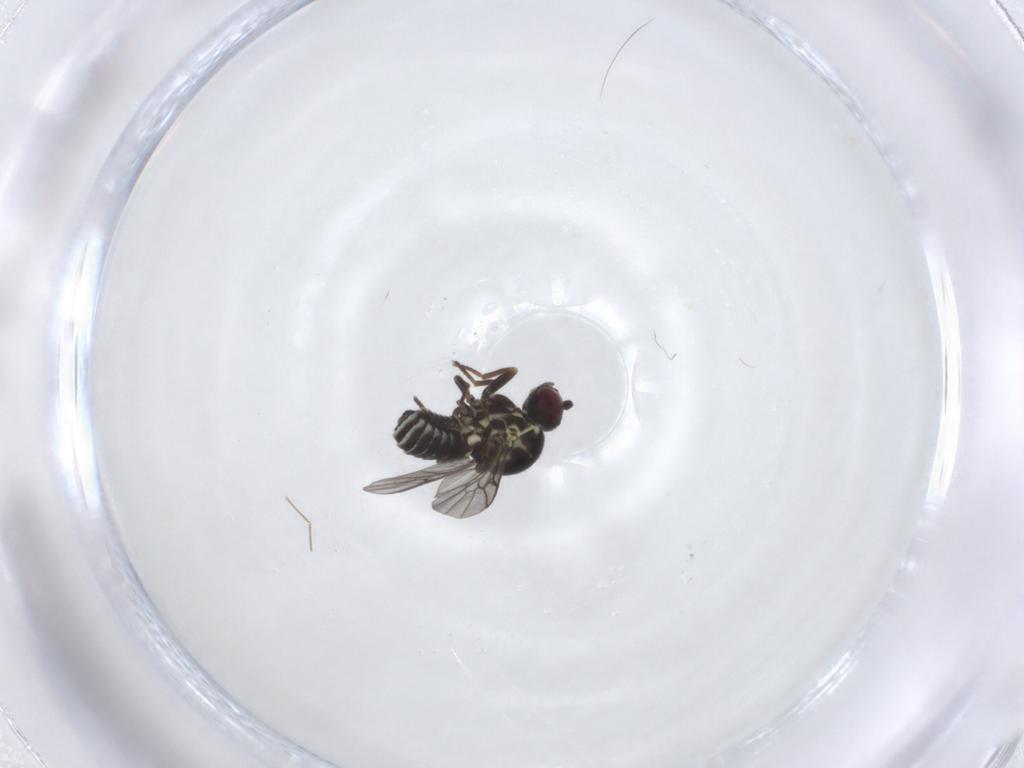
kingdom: Animalia
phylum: Arthropoda
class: Insecta
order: Diptera
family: Bombyliidae
